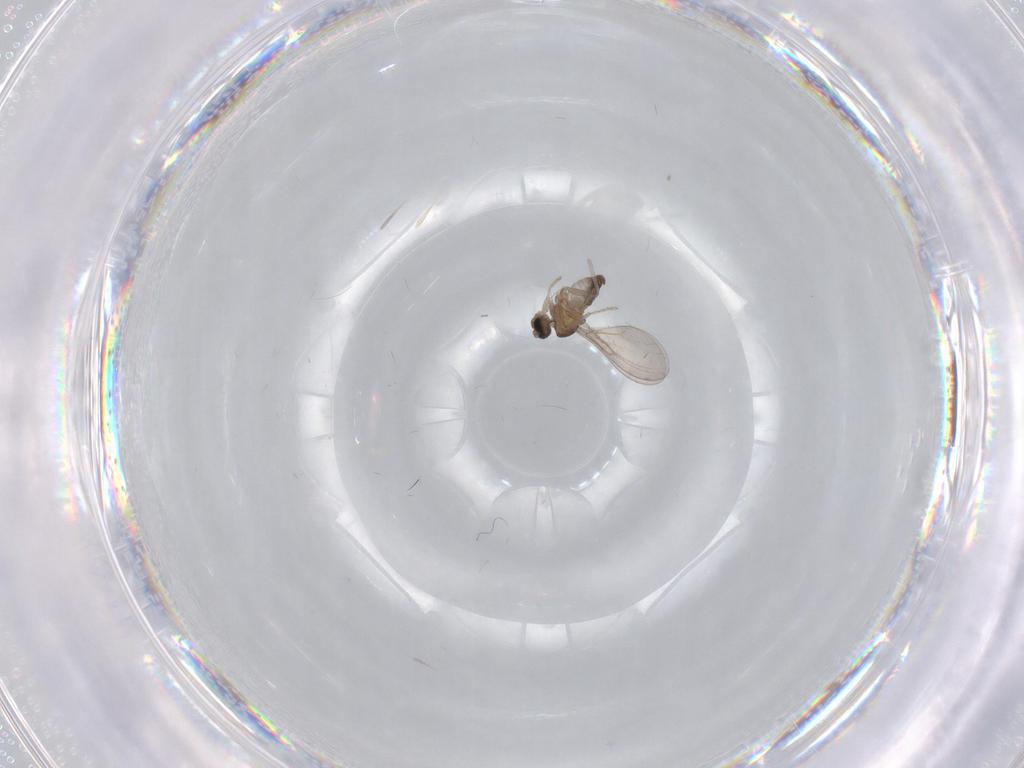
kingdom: Animalia
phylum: Arthropoda
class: Insecta
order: Diptera
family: Cecidomyiidae
